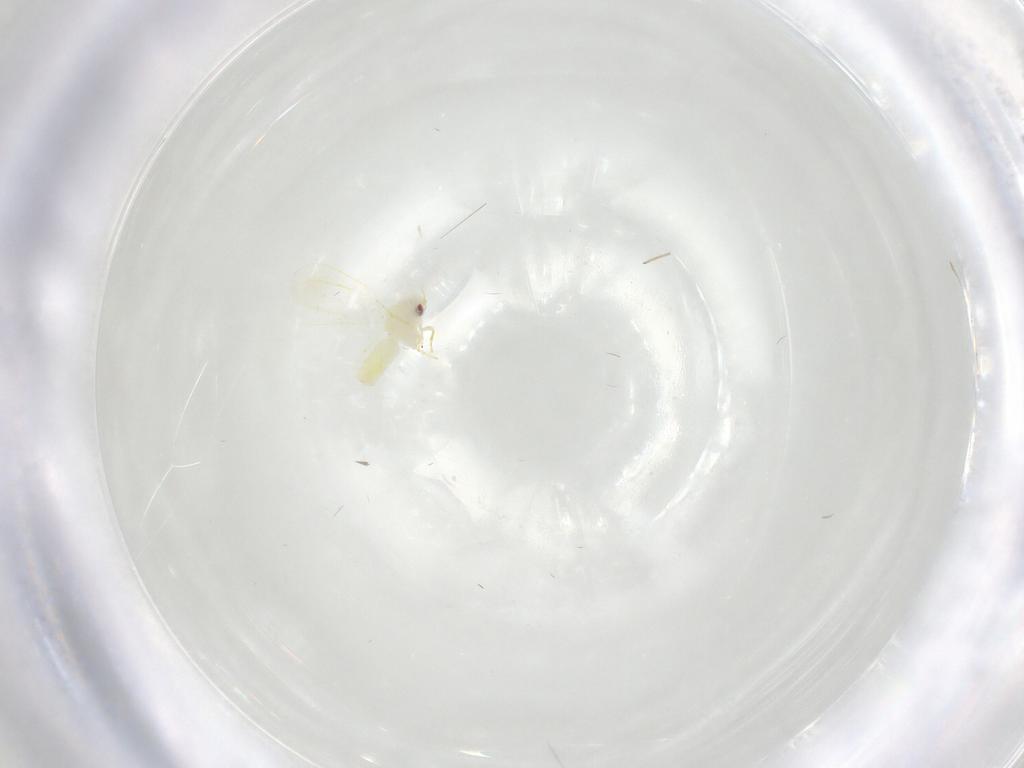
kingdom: Animalia
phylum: Arthropoda
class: Insecta
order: Hemiptera
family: Aleyrodidae
